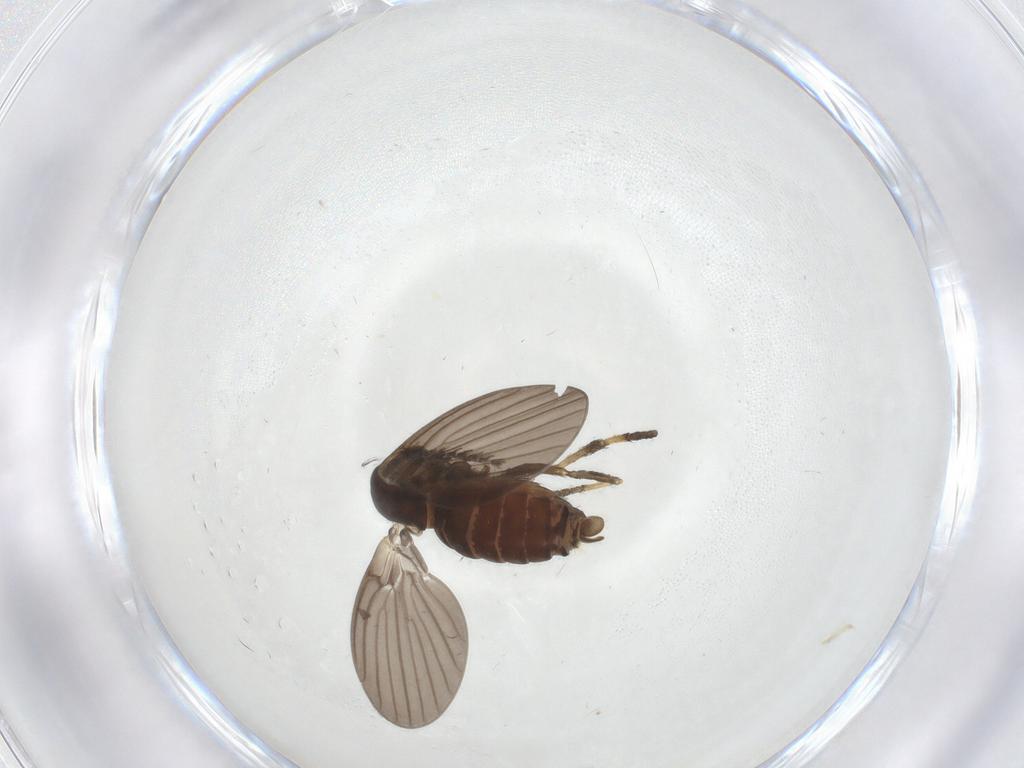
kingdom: Animalia
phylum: Arthropoda
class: Insecta
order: Diptera
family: Psychodidae
